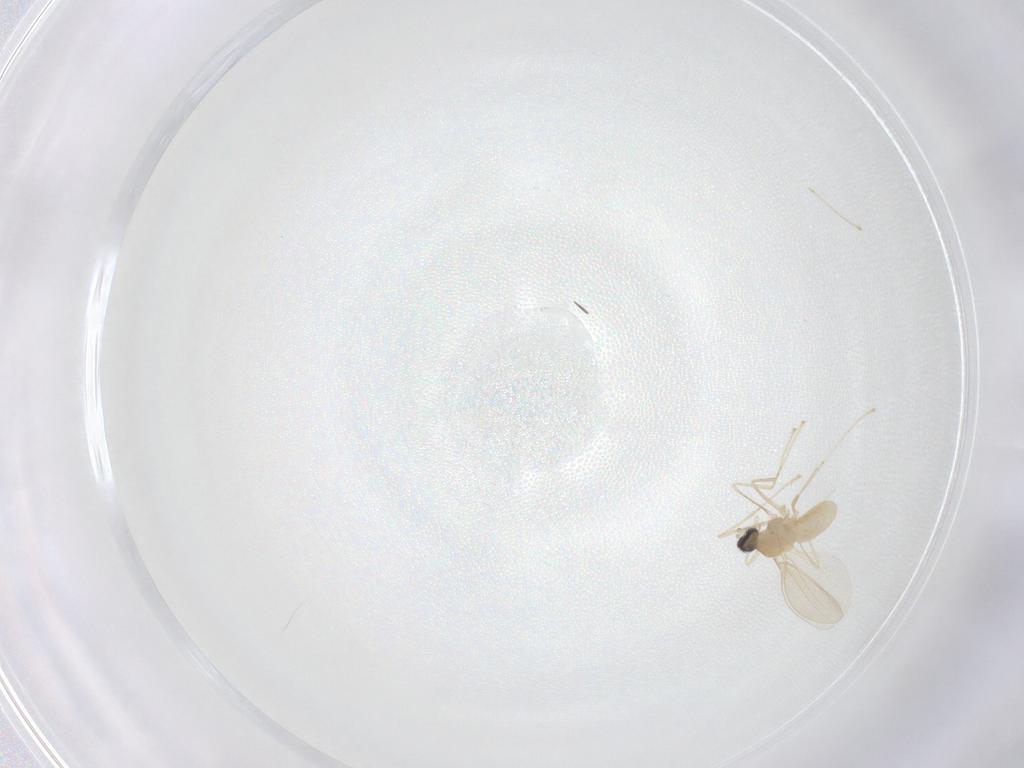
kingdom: Animalia
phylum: Arthropoda
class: Insecta
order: Diptera
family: Cecidomyiidae
